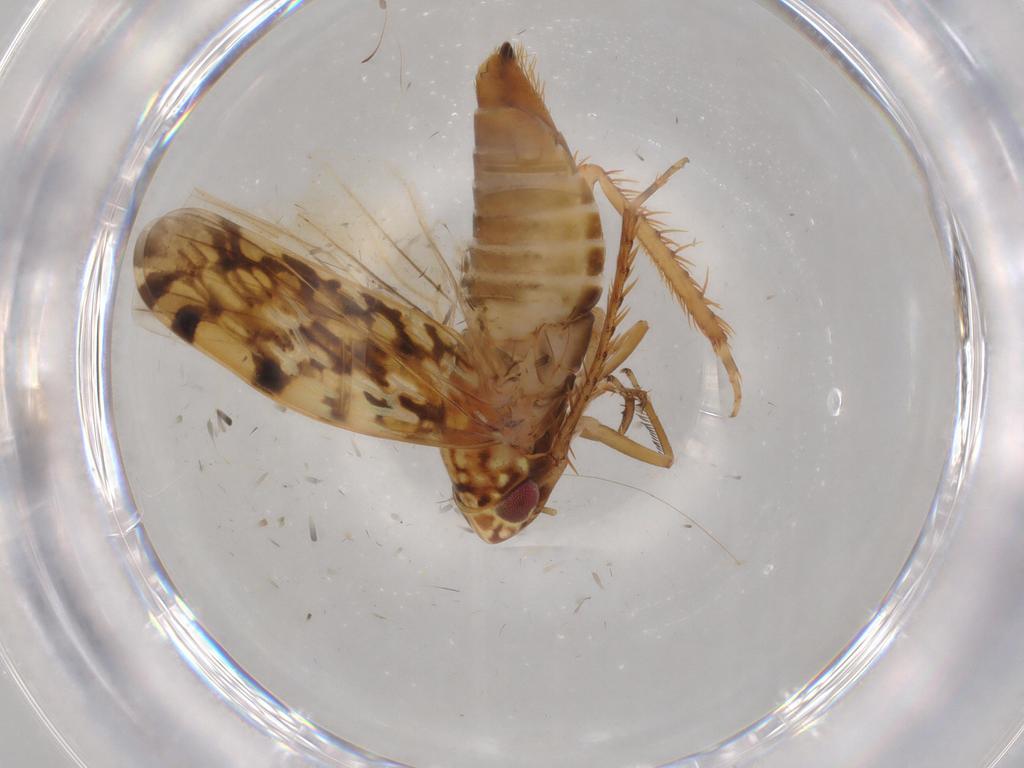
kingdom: Animalia
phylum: Arthropoda
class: Insecta
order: Hemiptera
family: Cicadellidae
